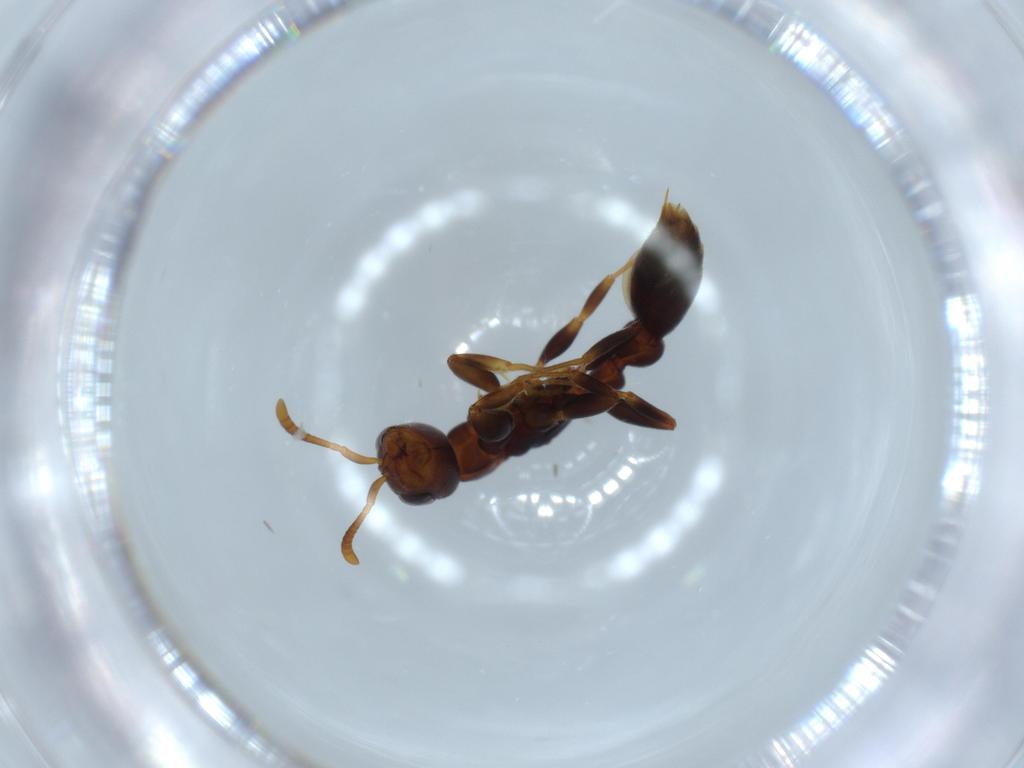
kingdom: Animalia
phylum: Arthropoda
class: Insecta
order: Hymenoptera
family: Formicidae
